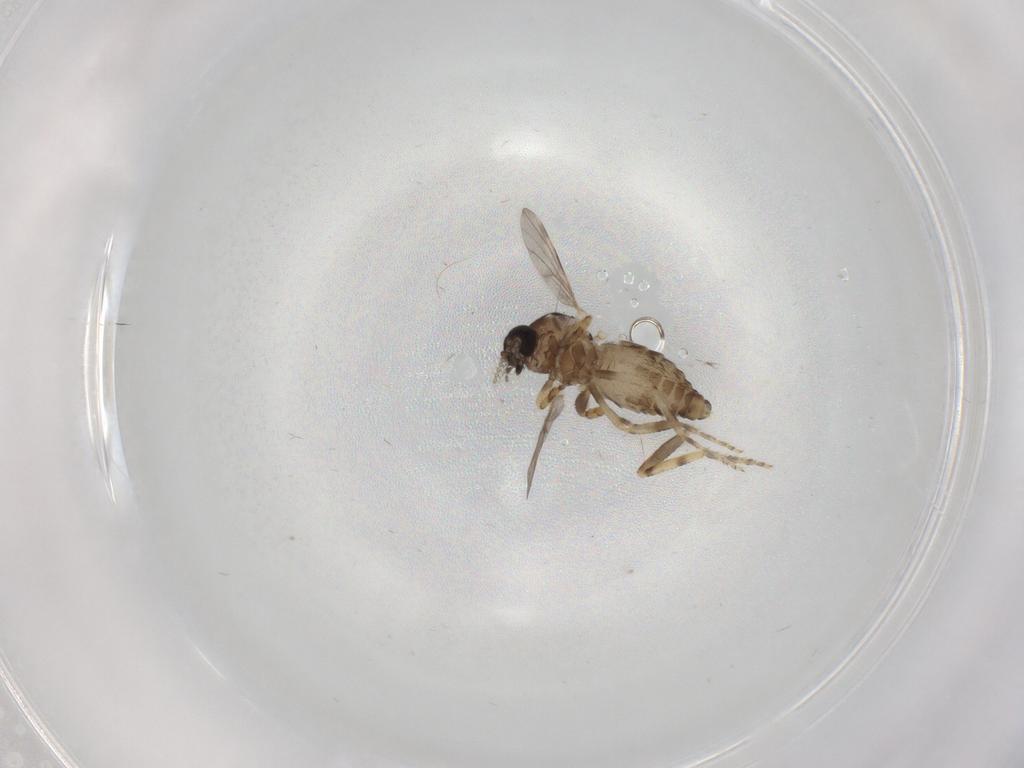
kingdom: Animalia
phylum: Arthropoda
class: Insecta
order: Diptera
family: Ceratopogonidae
